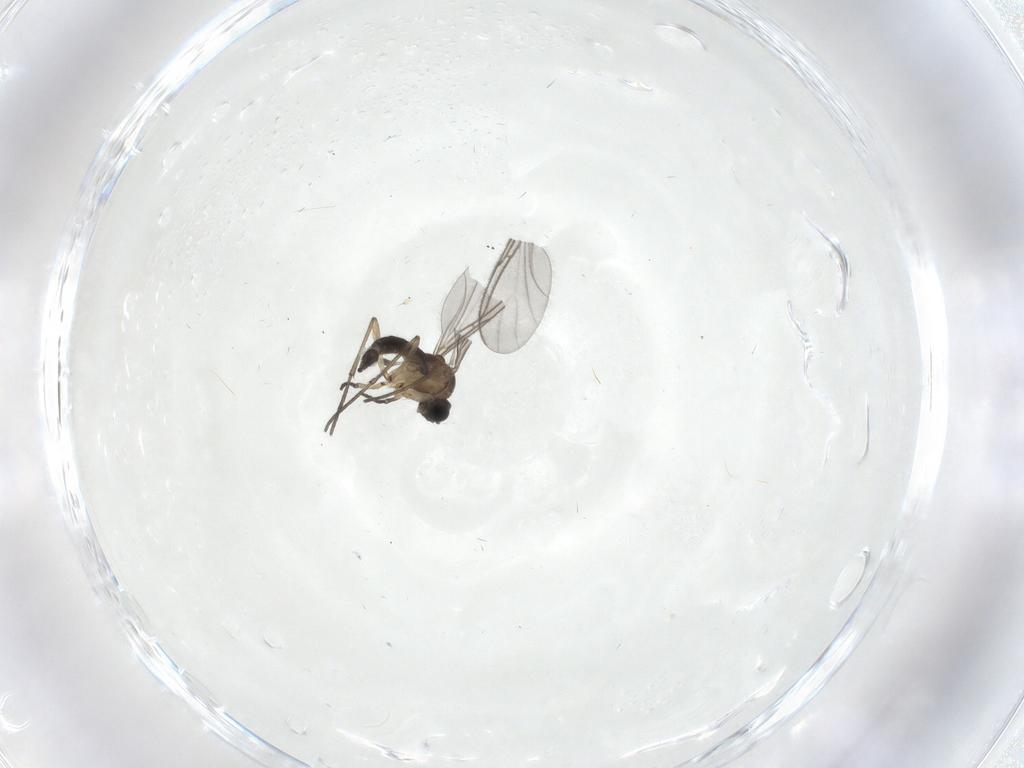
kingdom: Animalia
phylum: Arthropoda
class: Insecta
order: Diptera
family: Sciaridae
